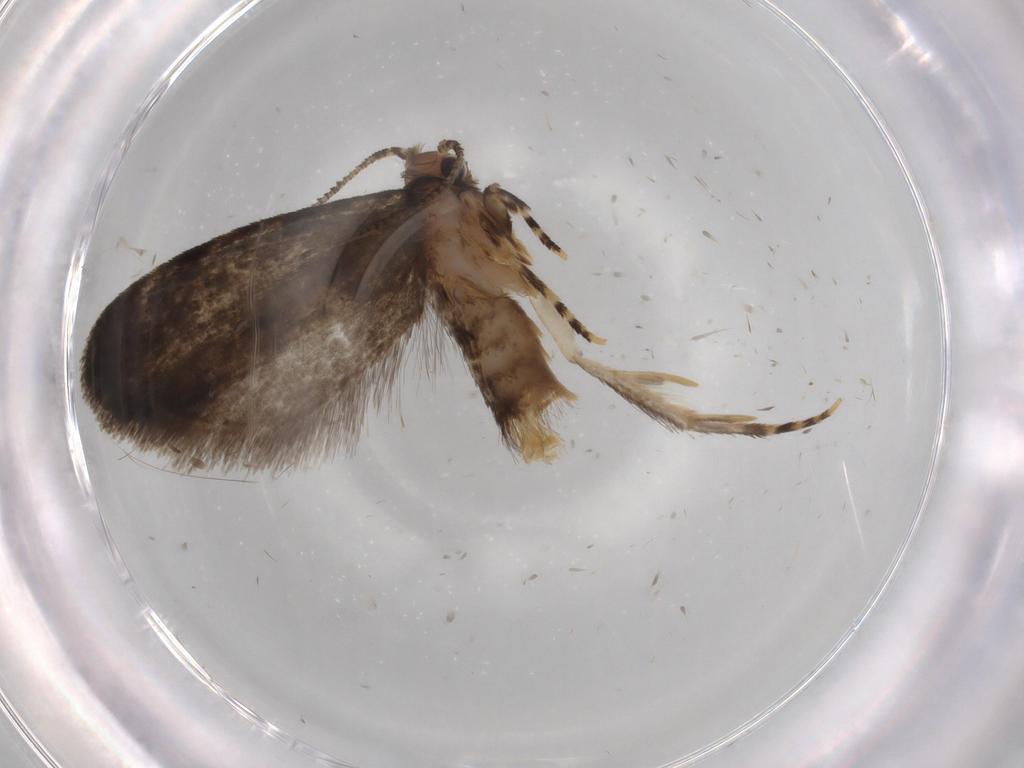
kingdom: Animalia
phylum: Arthropoda
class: Insecta
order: Lepidoptera
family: Dryadaulidae
